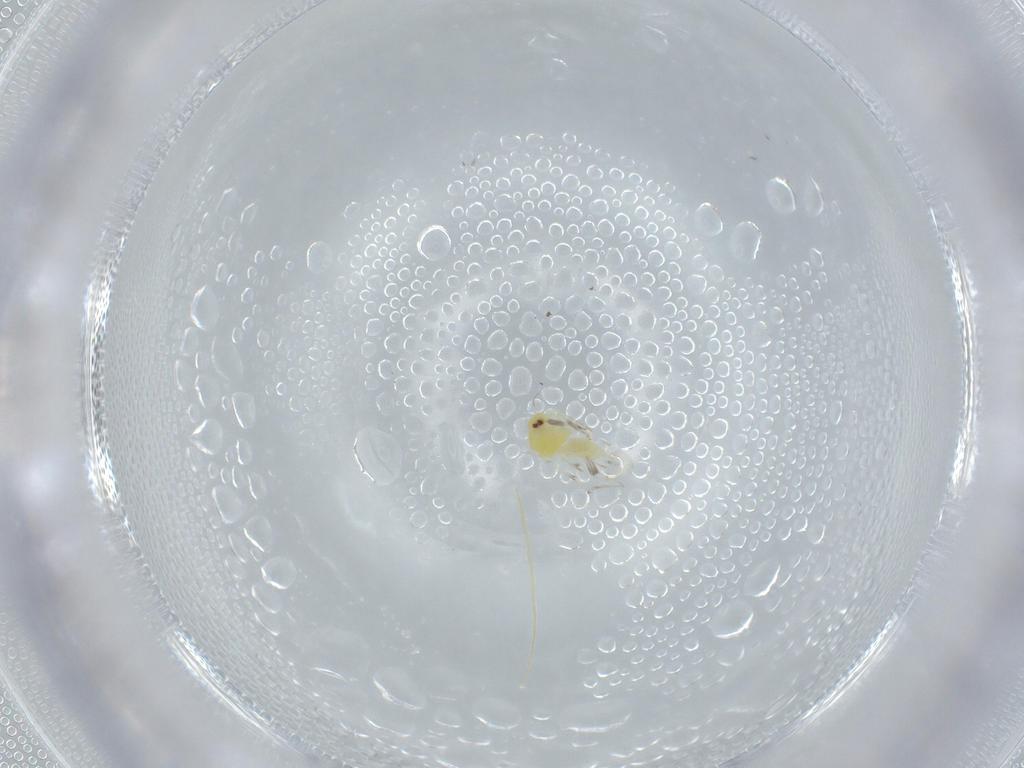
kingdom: Animalia
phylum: Arthropoda
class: Insecta
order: Hemiptera
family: Aleyrodidae
